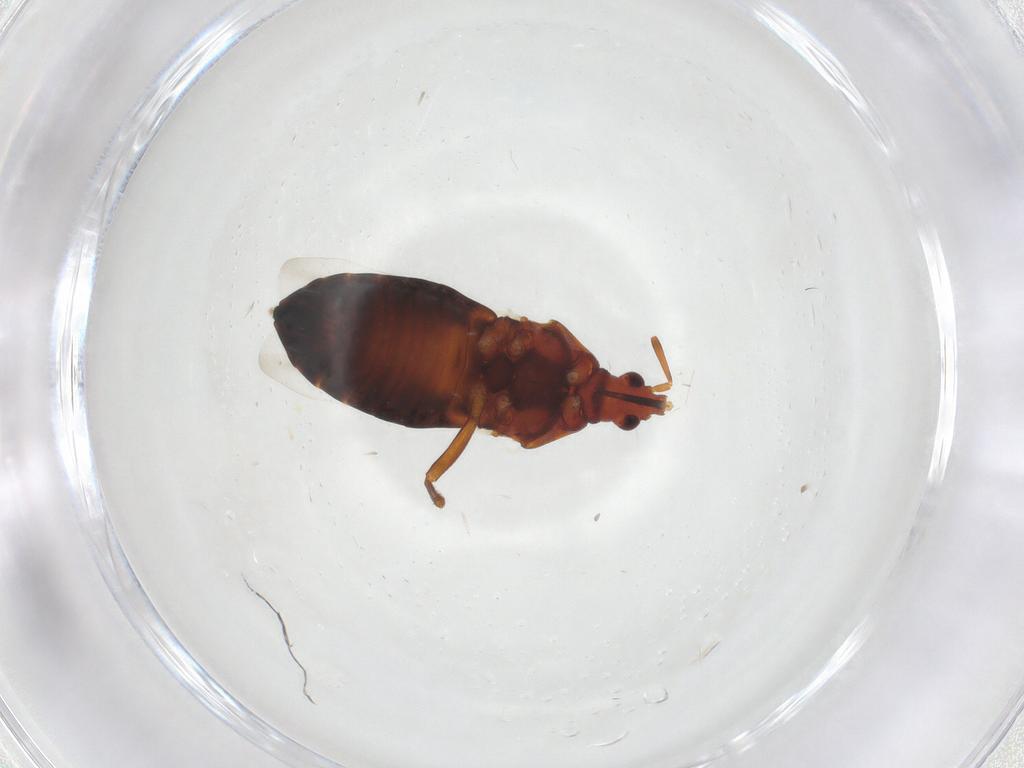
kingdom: Animalia
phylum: Arthropoda
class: Insecta
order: Hemiptera
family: Anthocoridae
